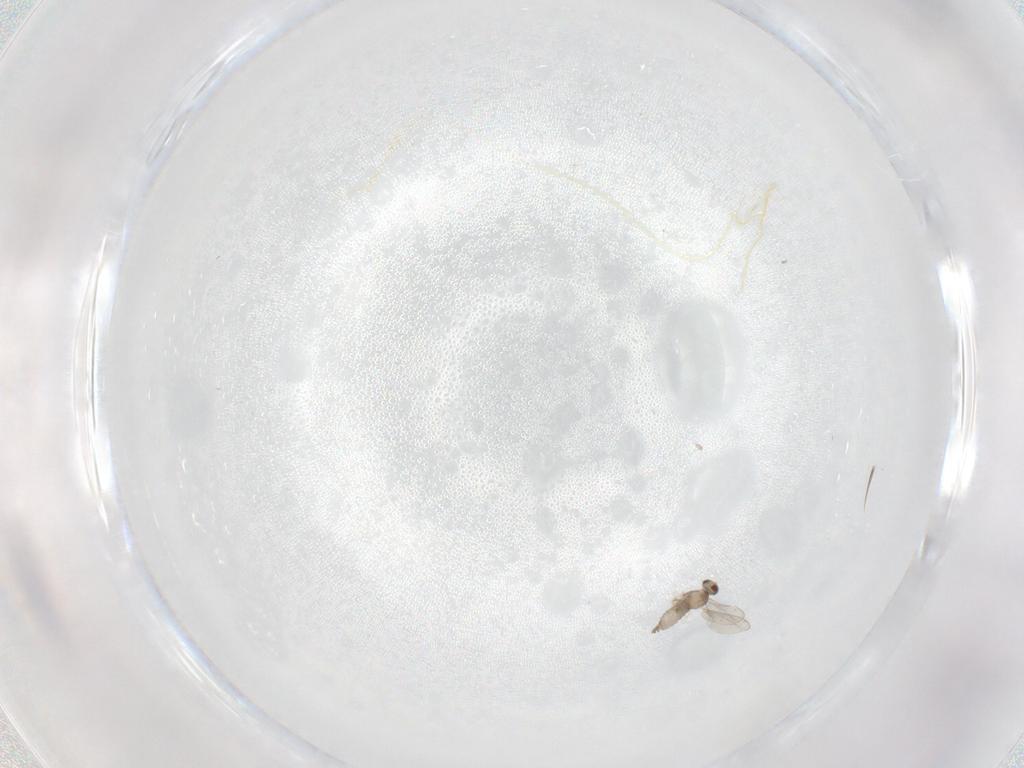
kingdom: Animalia
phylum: Arthropoda
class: Insecta
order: Diptera
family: Cecidomyiidae
